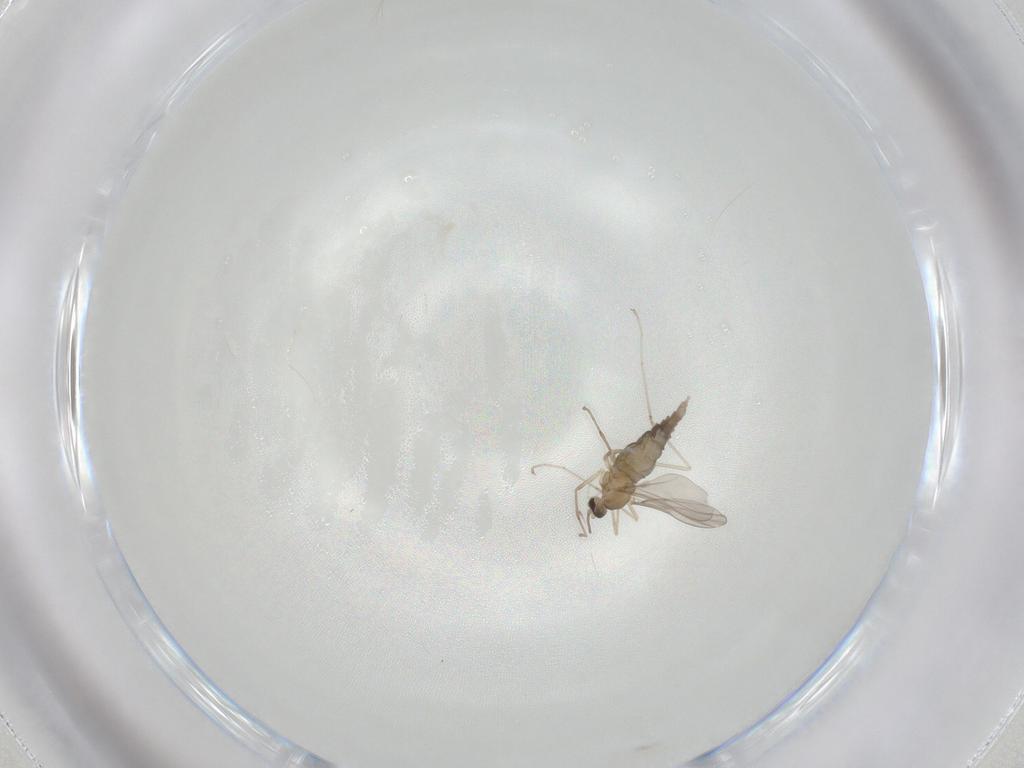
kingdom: Animalia
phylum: Arthropoda
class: Insecta
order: Diptera
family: Cecidomyiidae
